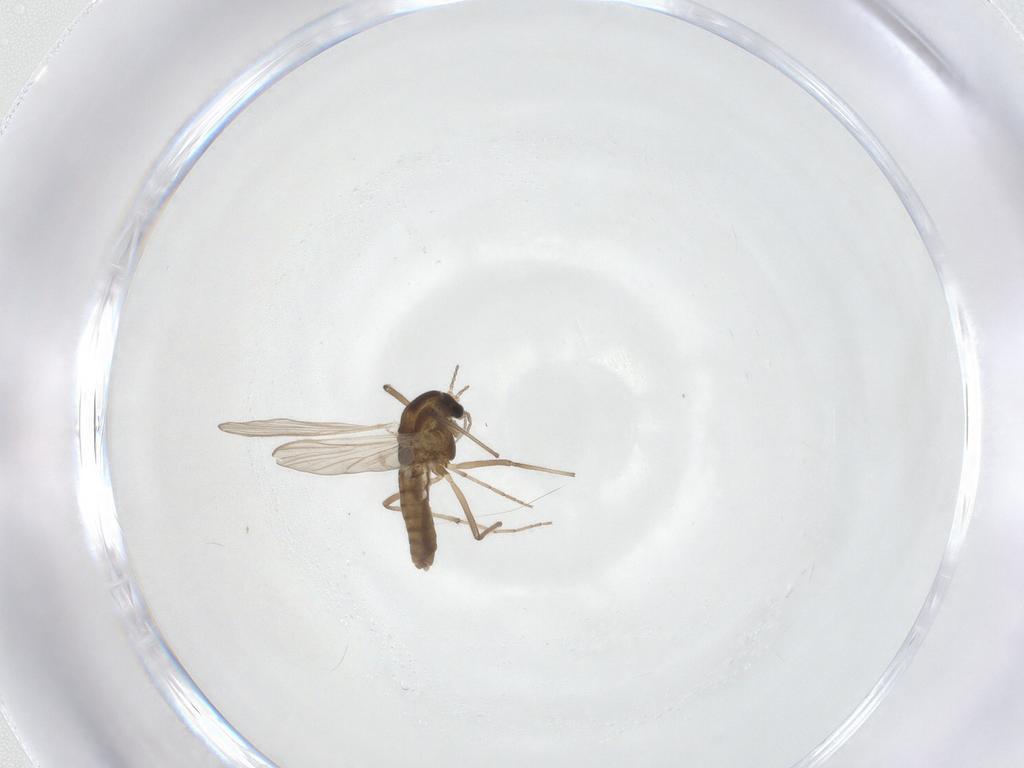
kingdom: Animalia
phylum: Arthropoda
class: Insecta
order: Diptera
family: Chironomidae
